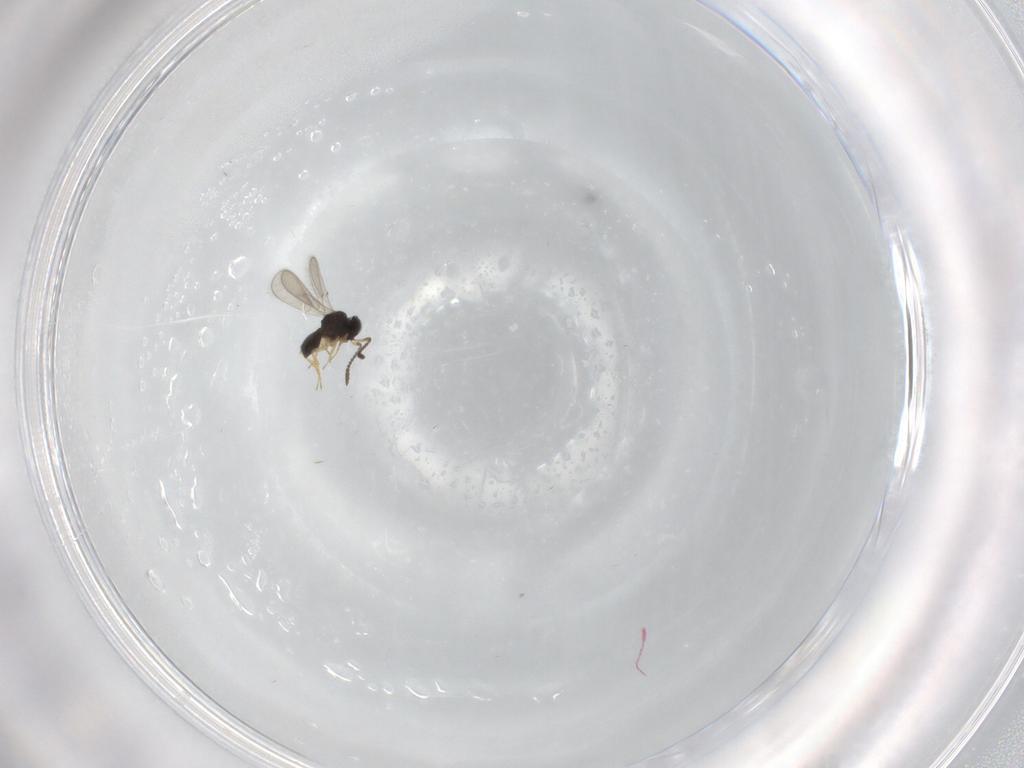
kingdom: Animalia
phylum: Arthropoda
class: Insecta
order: Hymenoptera
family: Scelionidae
